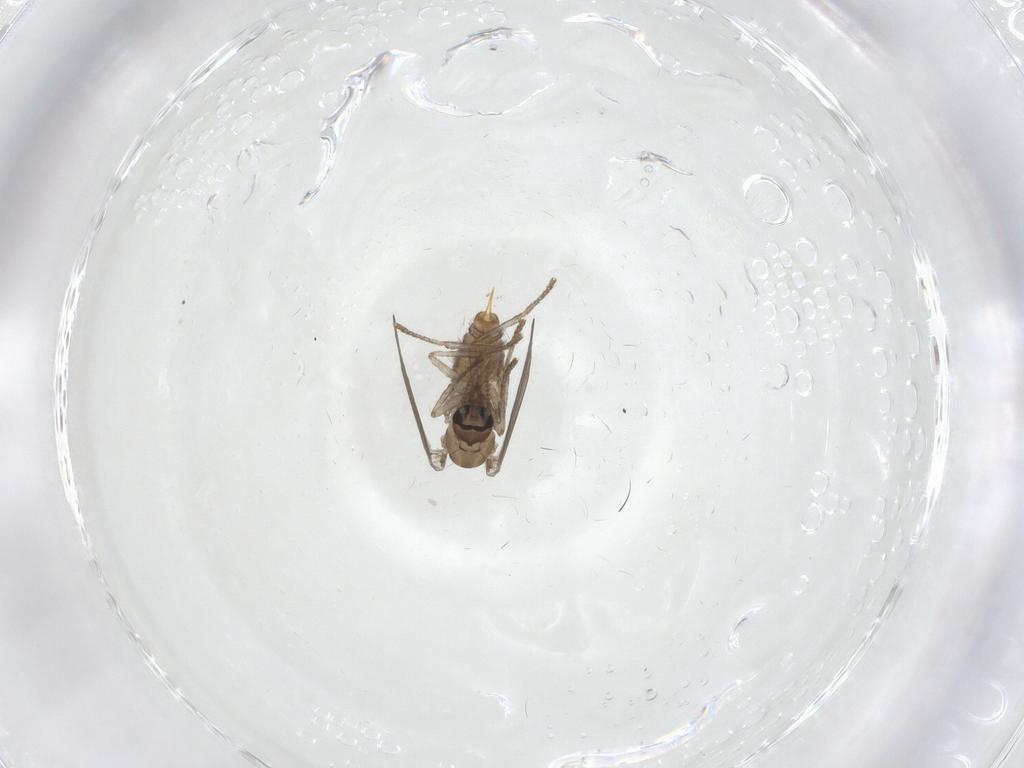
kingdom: Animalia
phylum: Arthropoda
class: Insecta
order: Diptera
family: Psychodidae
